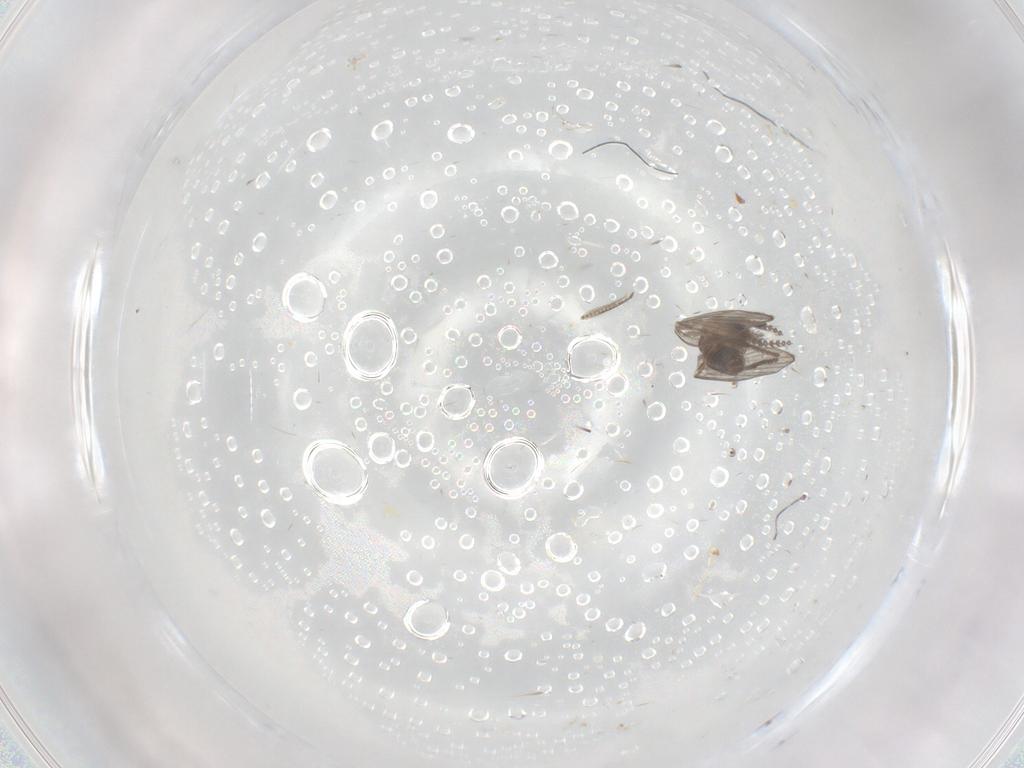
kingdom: Animalia
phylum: Arthropoda
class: Insecta
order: Diptera
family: Psychodidae
